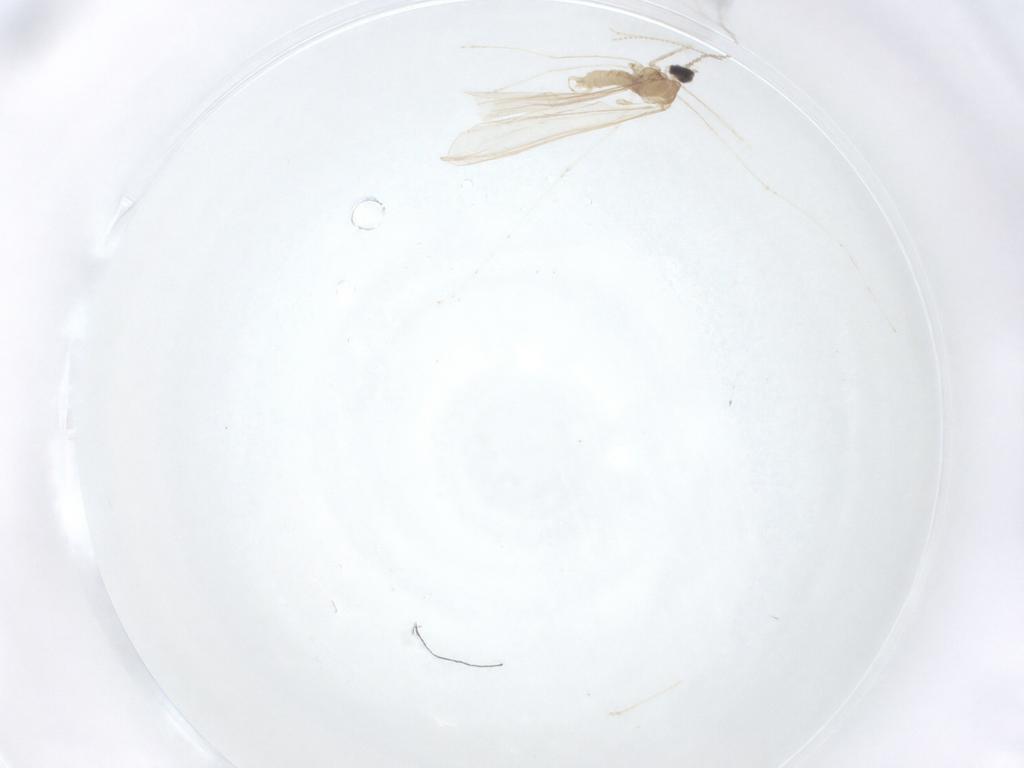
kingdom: Animalia
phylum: Arthropoda
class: Insecta
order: Diptera
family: Cecidomyiidae
